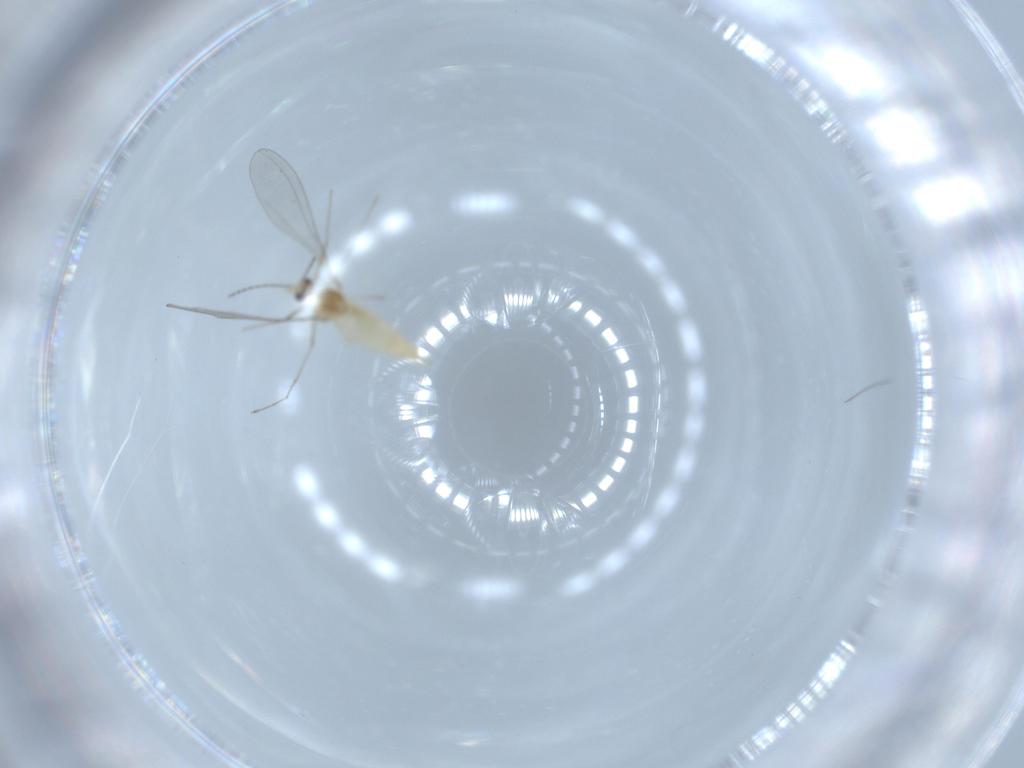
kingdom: Animalia
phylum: Arthropoda
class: Insecta
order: Diptera
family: Cecidomyiidae
